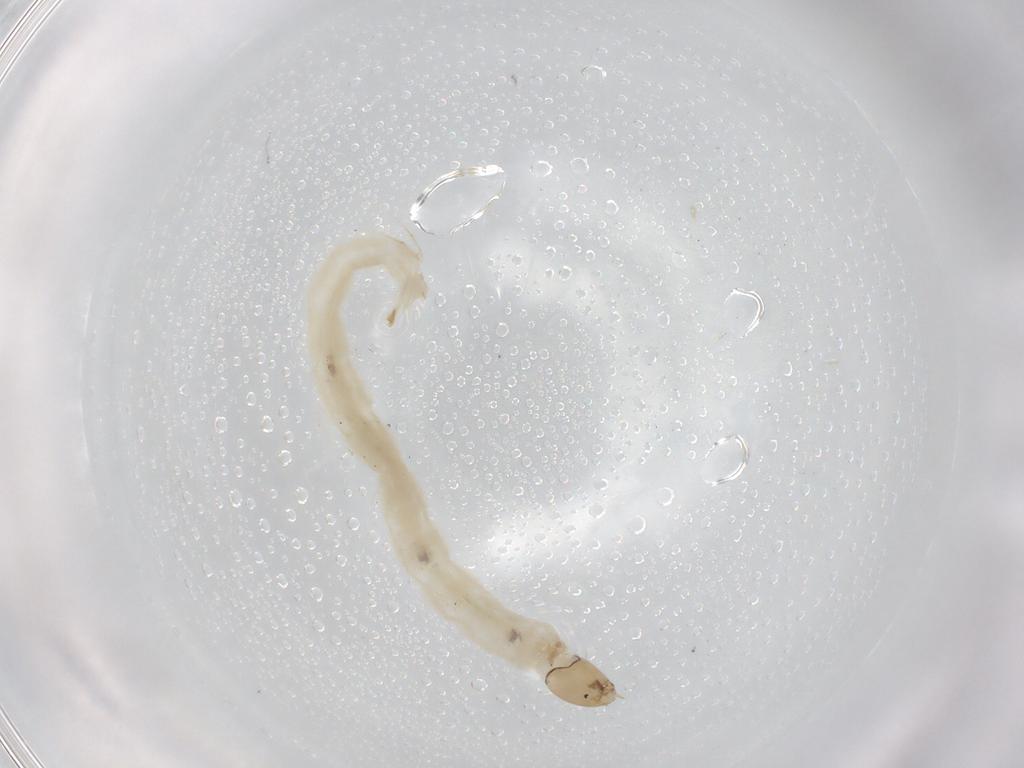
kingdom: Animalia
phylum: Arthropoda
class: Insecta
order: Diptera
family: Chironomidae
